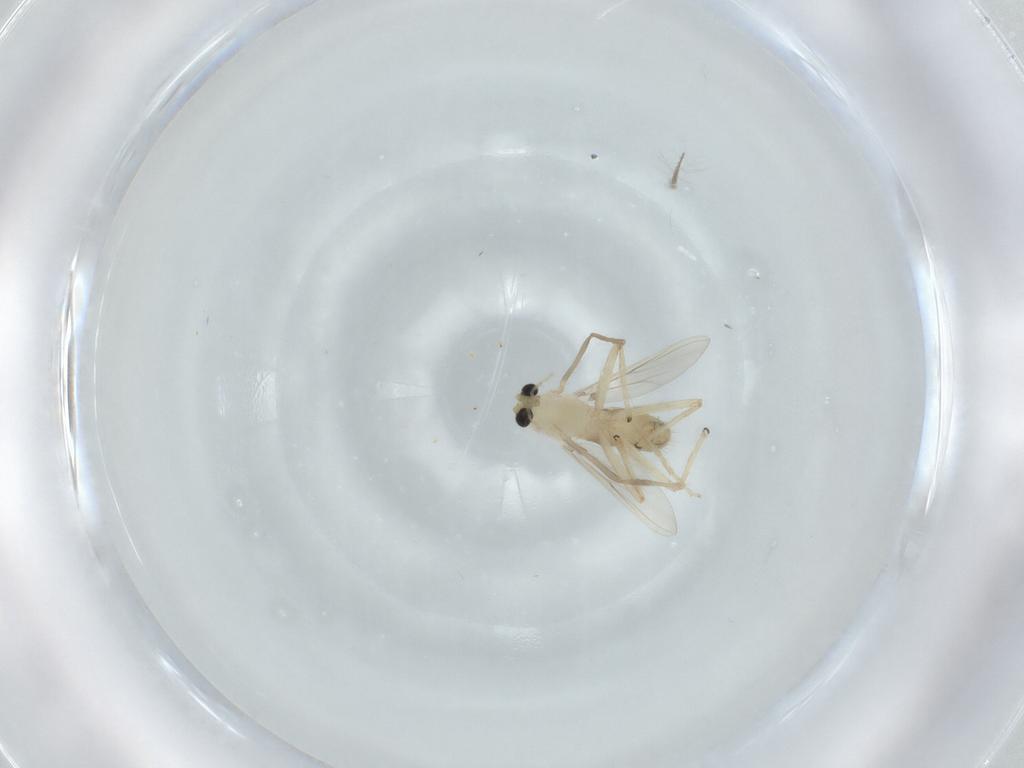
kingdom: Animalia
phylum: Arthropoda
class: Insecta
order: Diptera
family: Chironomidae
